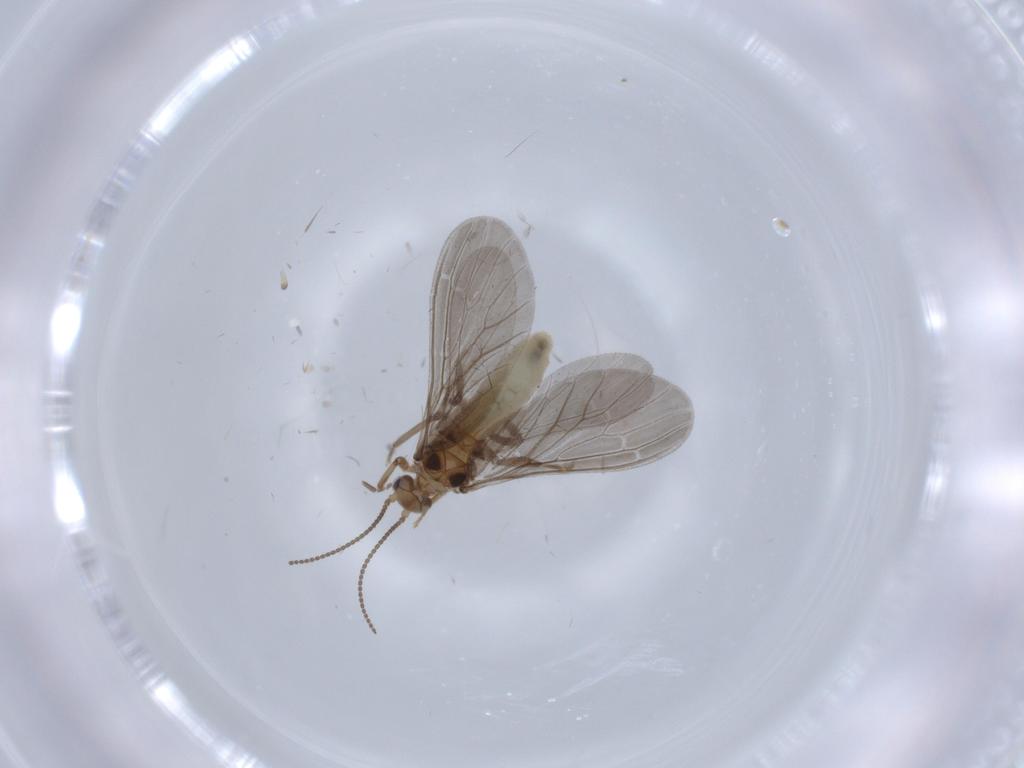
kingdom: Animalia
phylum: Arthropoda
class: Insecta
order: Neuroptera
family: Coniopterygidae
